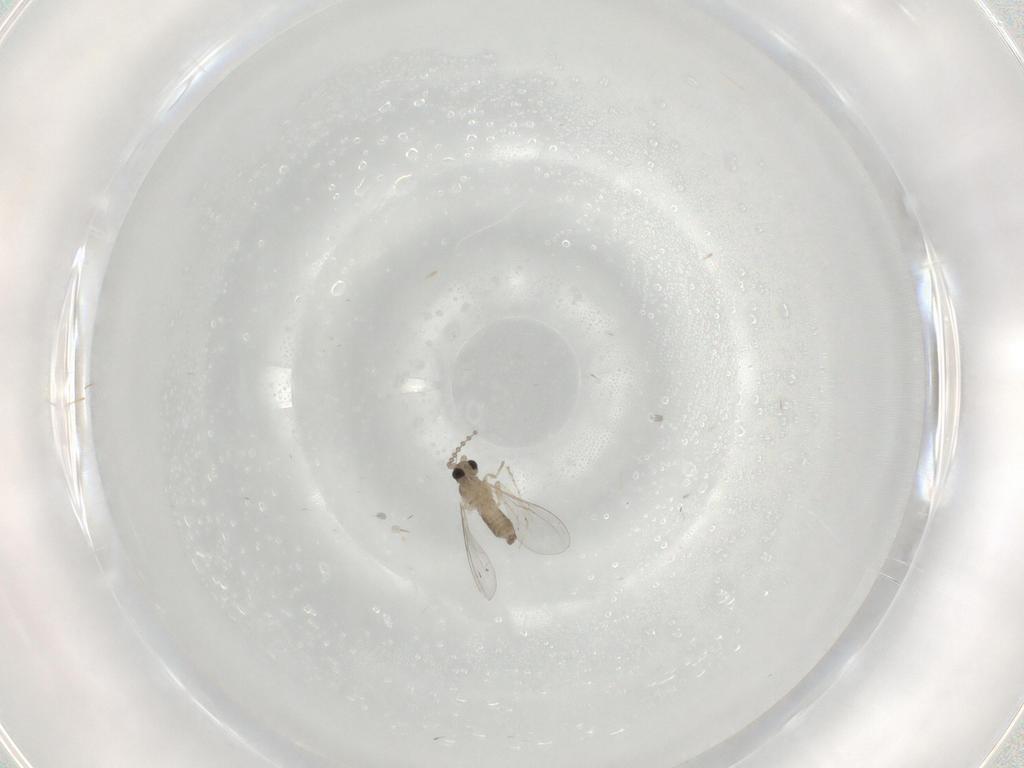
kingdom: Animalia
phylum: Arthropoda
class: Insecta
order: Diptera
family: Cecidomyiidae
